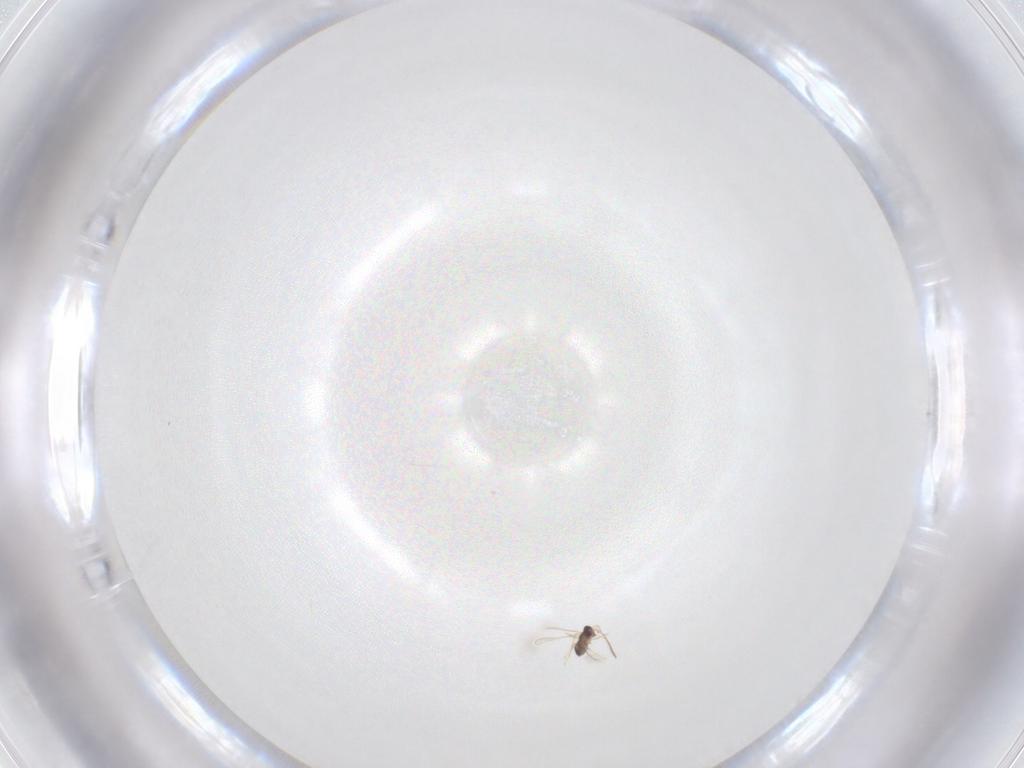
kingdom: Animalia
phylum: Arthropoda
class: Insecta
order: Hymenoptera
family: Mymaridae
